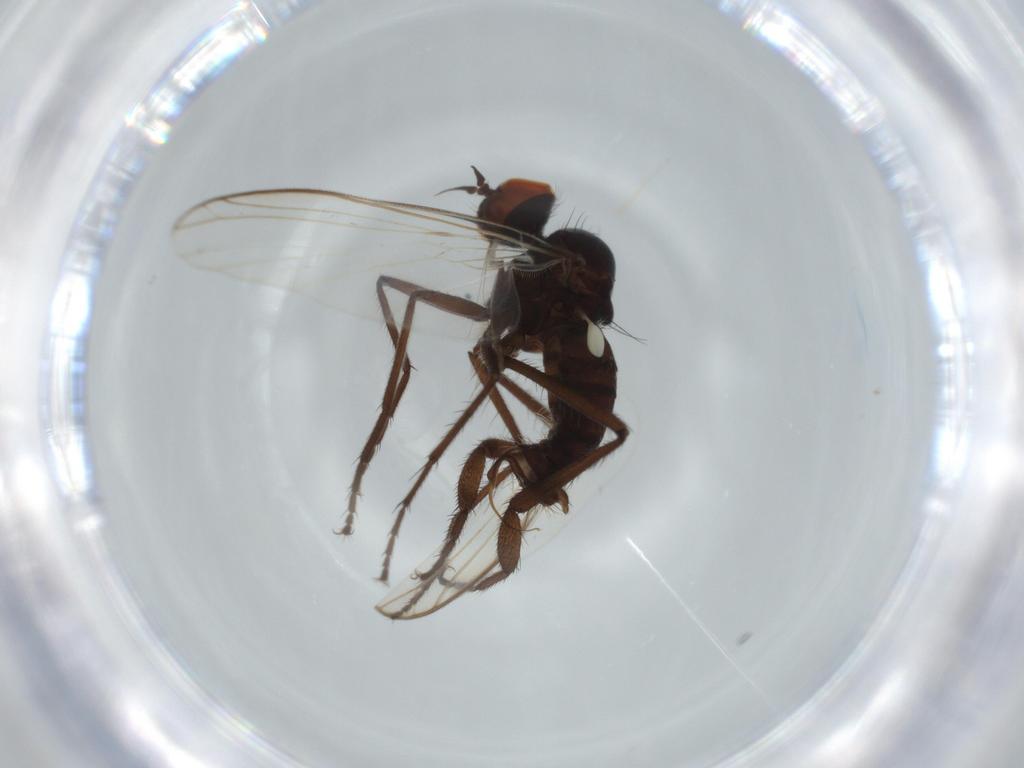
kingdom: Animalia
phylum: Arthropoda
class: Insecta
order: Diptera
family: Empididae
